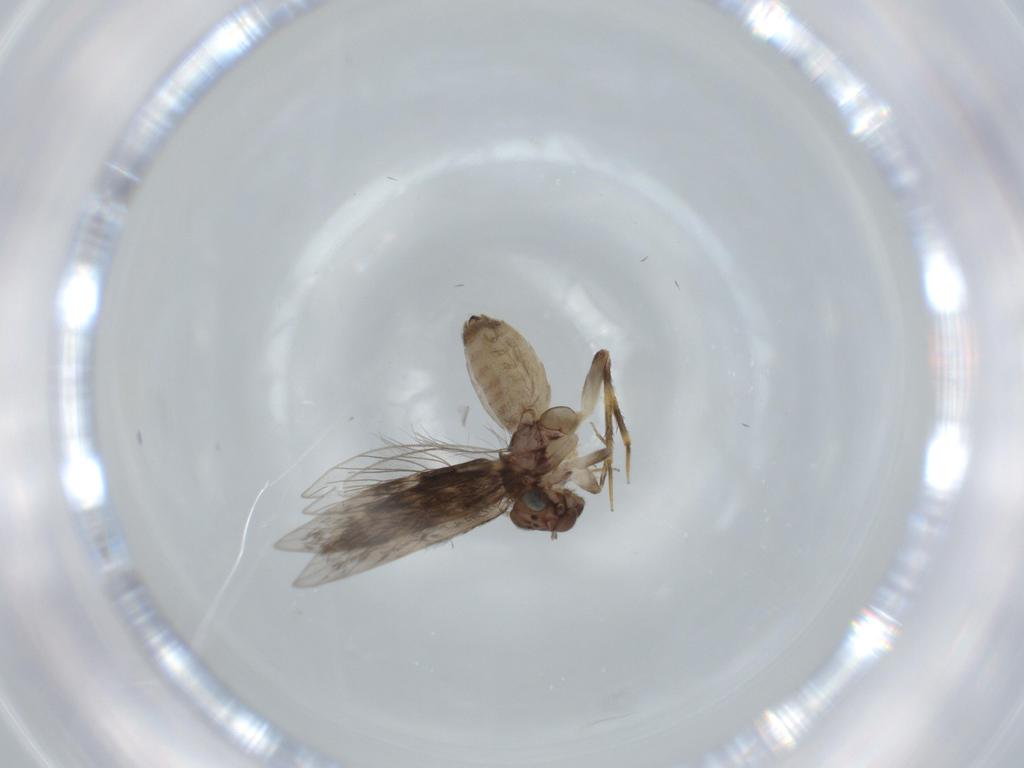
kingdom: Animalia
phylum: Arthropoda
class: Insecta
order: Psocodea
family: Lepidopsocidae
